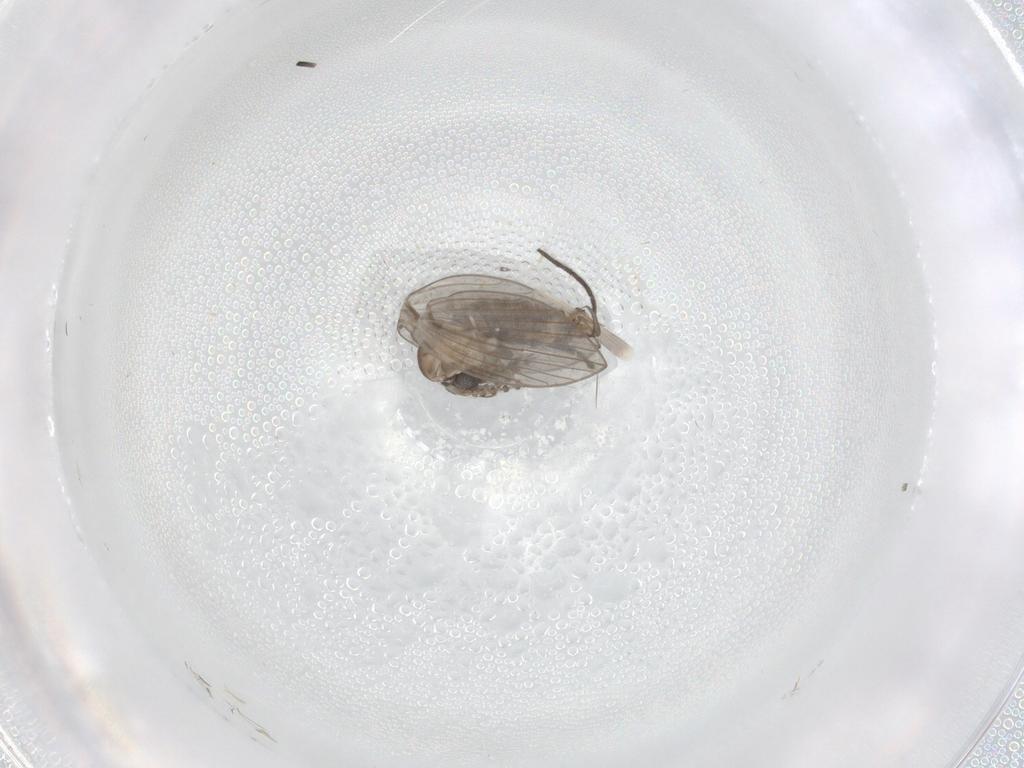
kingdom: Animalia
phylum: Arthropoda
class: Insecta
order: Diptera
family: Psychodidae
